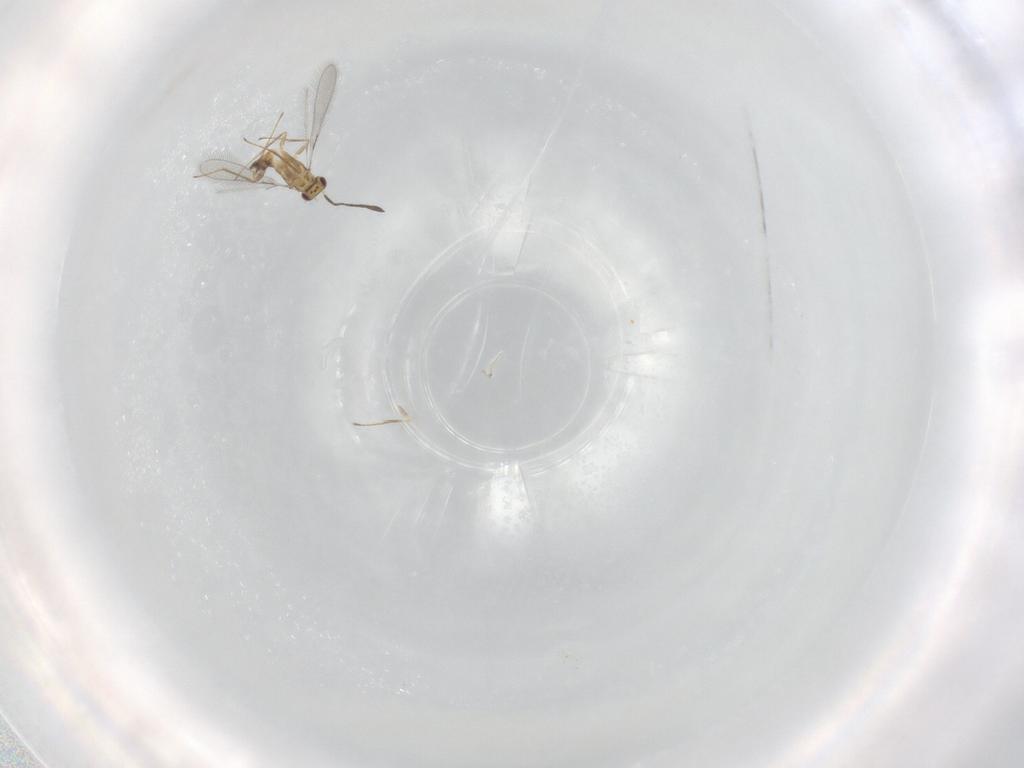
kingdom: Animalia
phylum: Arthropoda
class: Insecta
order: Hymenoptera
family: Mymaridae
